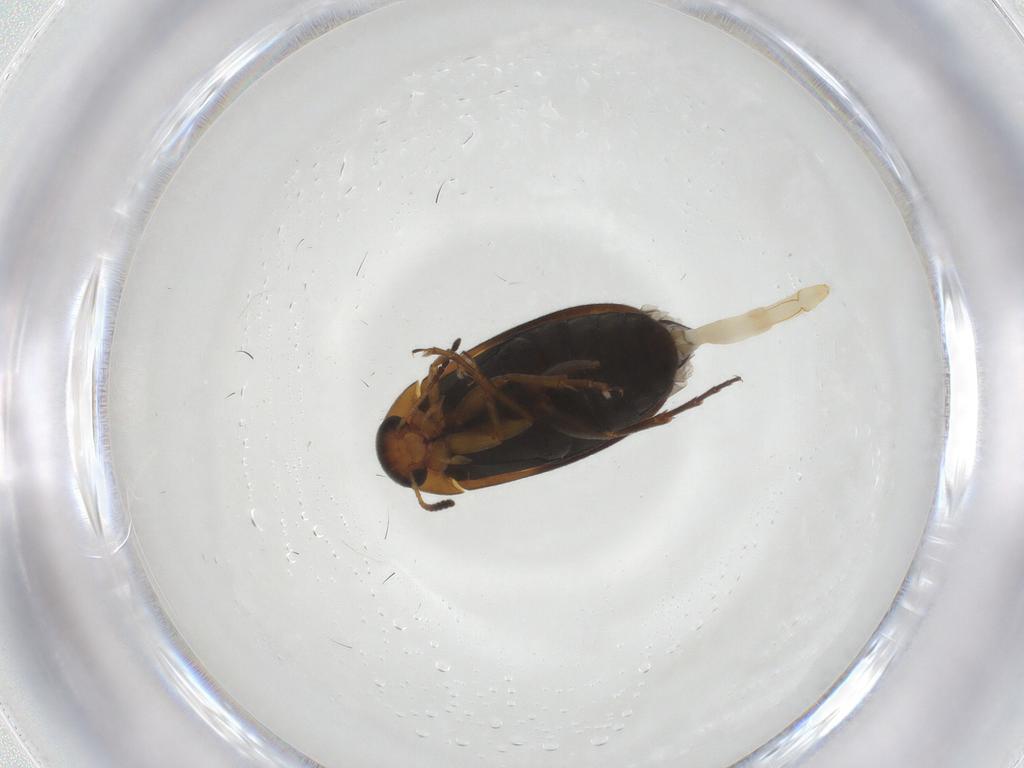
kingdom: Animalia
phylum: Arthropoda
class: Insecta
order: Coleoptera
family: Scraptiidae
